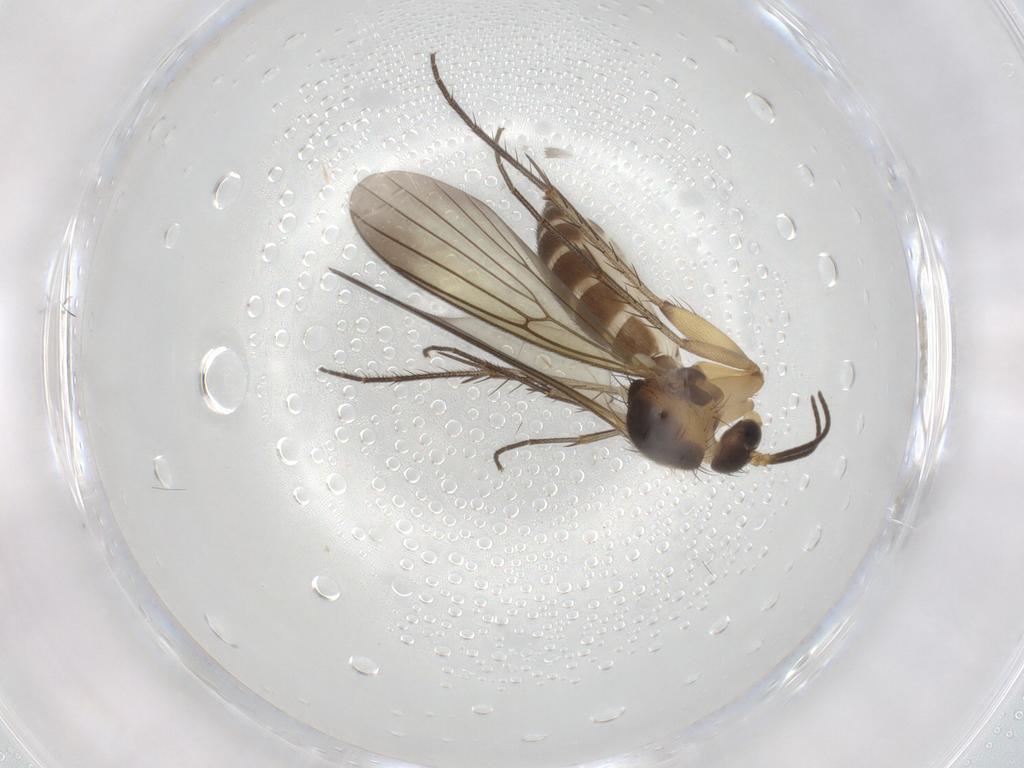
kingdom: Animalia
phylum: Arthropoda
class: Insecta
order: Diptera
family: Mycetophilidae
